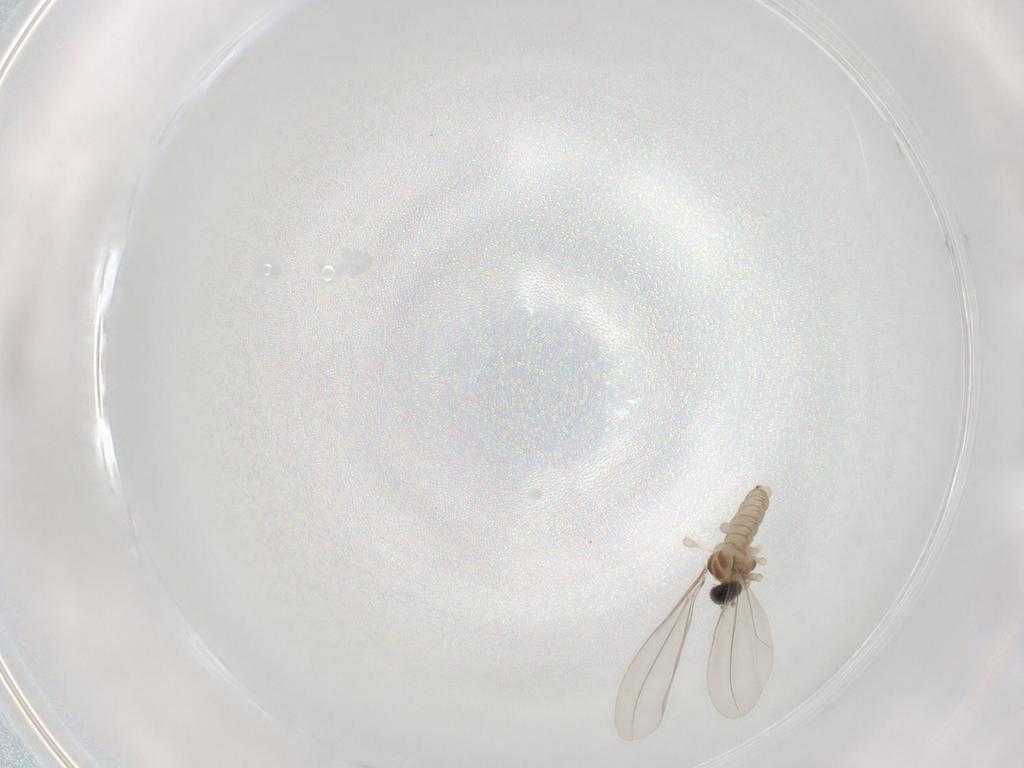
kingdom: Animalia
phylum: Arthropoda
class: Insecta
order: Diptera
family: Cecidomyiidae
